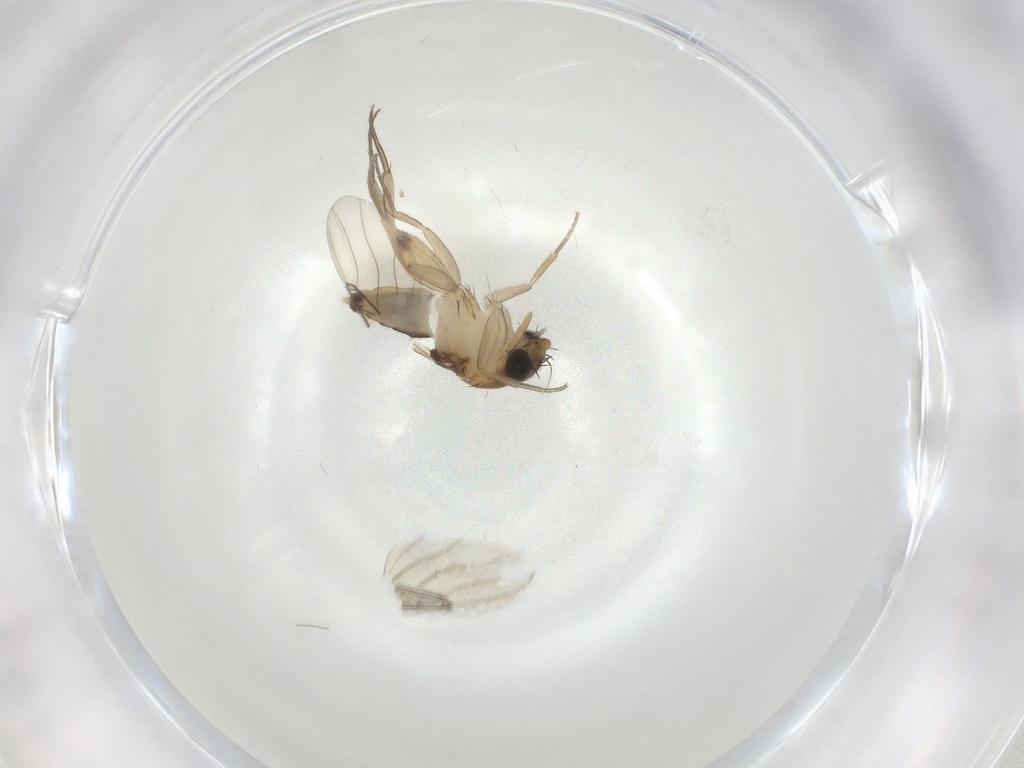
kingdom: Animalia
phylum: Arthropoda
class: Insecta
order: Diptera
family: Phoridae
